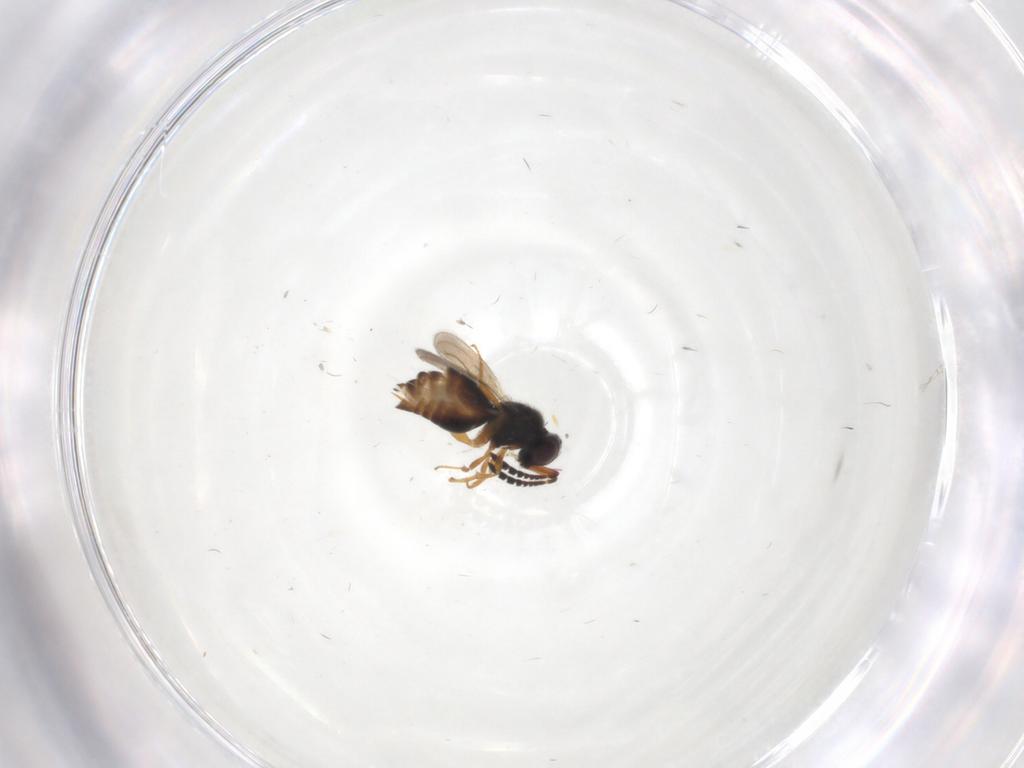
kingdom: Animalia
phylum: Arthropoda
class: Insecta
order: Hymenoptera
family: Ceraphronidae
